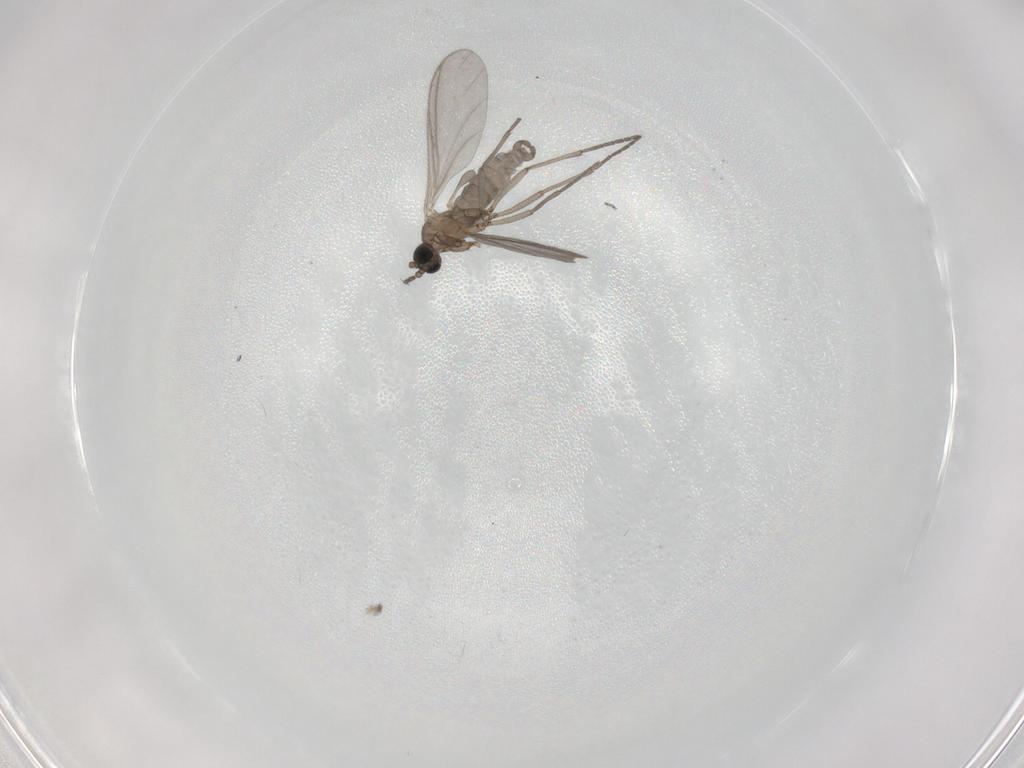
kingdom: Animalia
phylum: Arthropoda
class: Insecta
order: Diptera
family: Sciaridae
